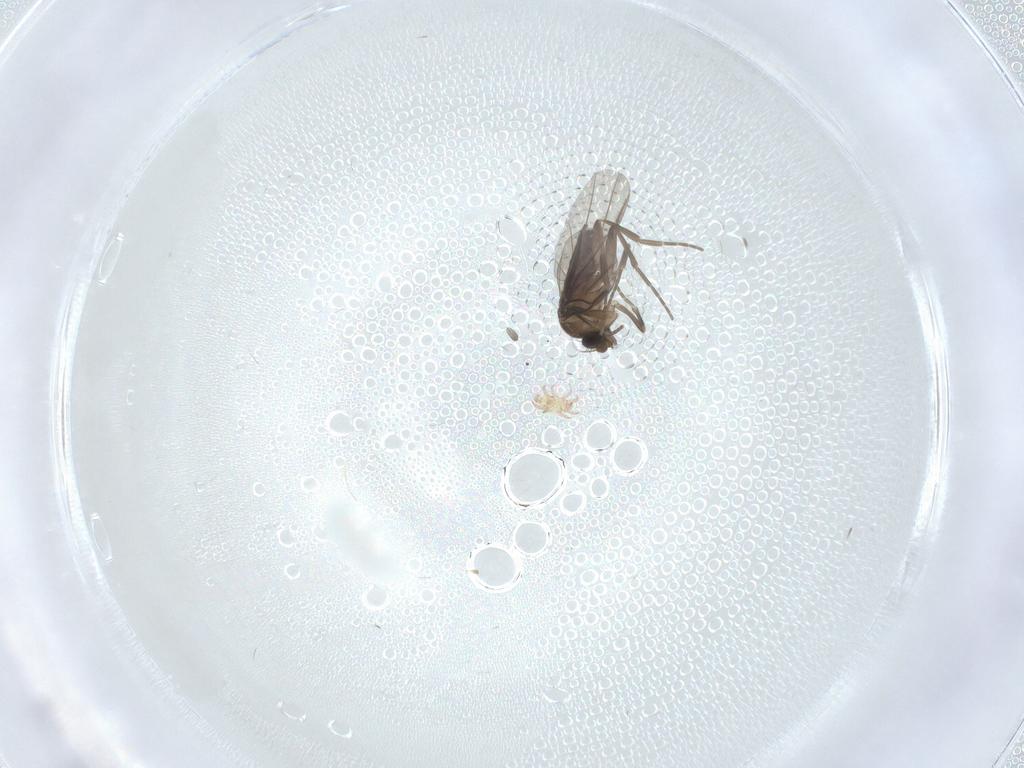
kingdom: Animalia
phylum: Arthropoda
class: Insecta
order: Diptera
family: Phoridae
